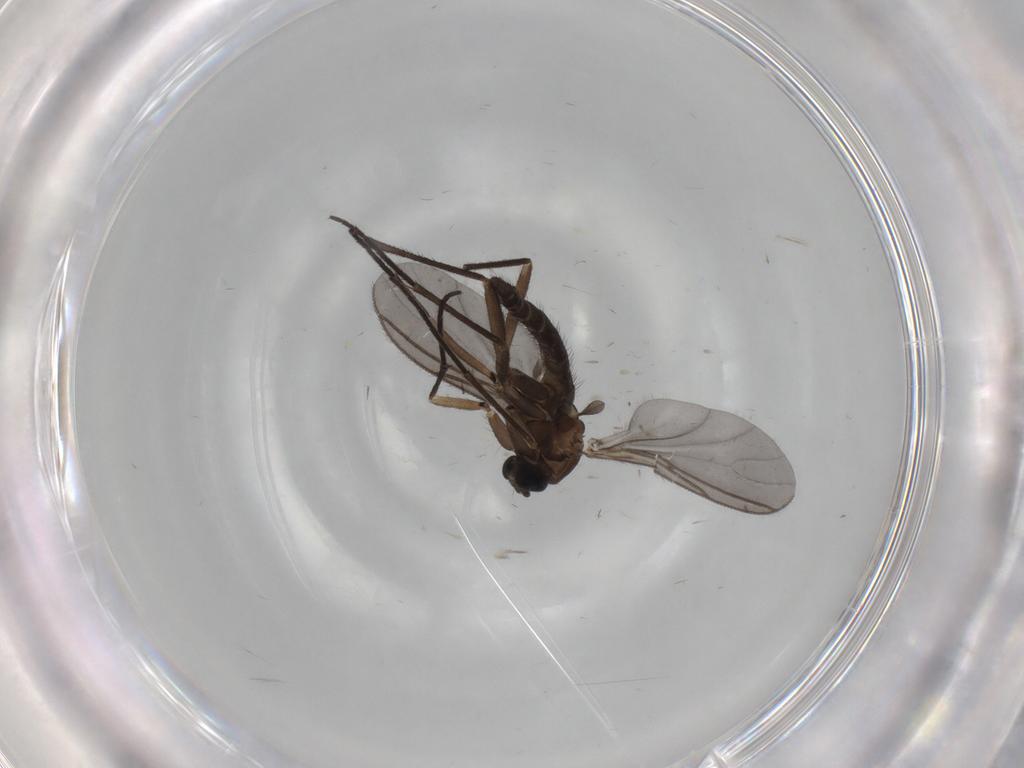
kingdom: Animalia
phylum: Arthropoda
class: Insecta
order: Diptera
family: Sciaridae
